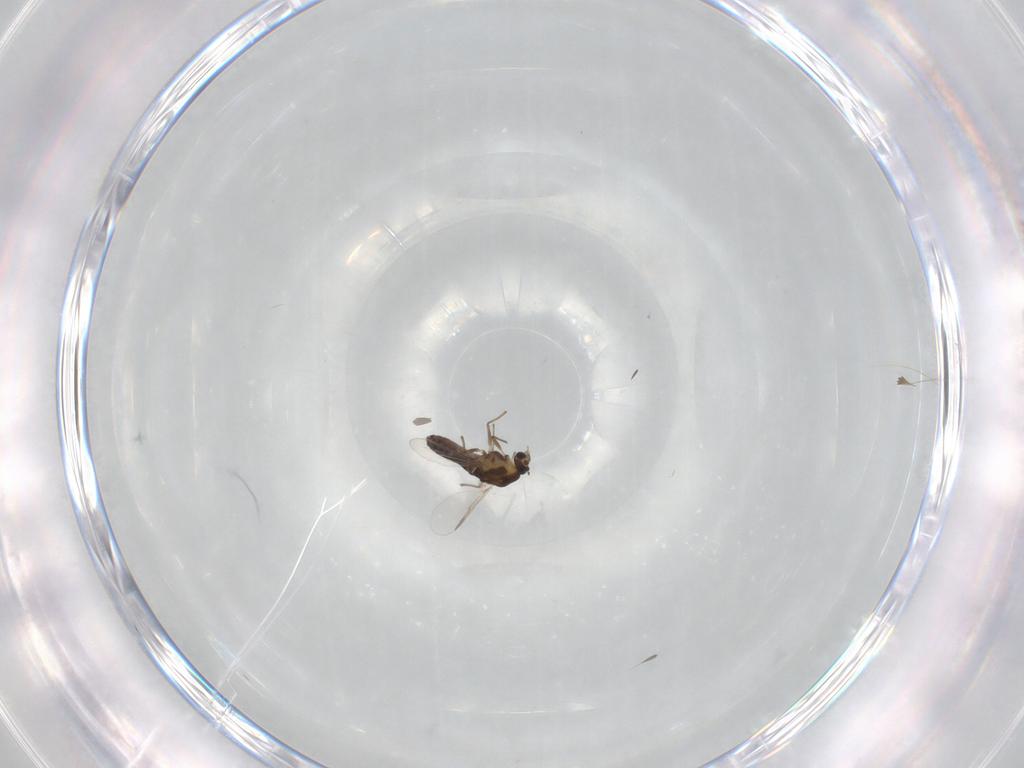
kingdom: Animalia
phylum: Arthropoda
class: Insecta
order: Diptera
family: Chironomidae
